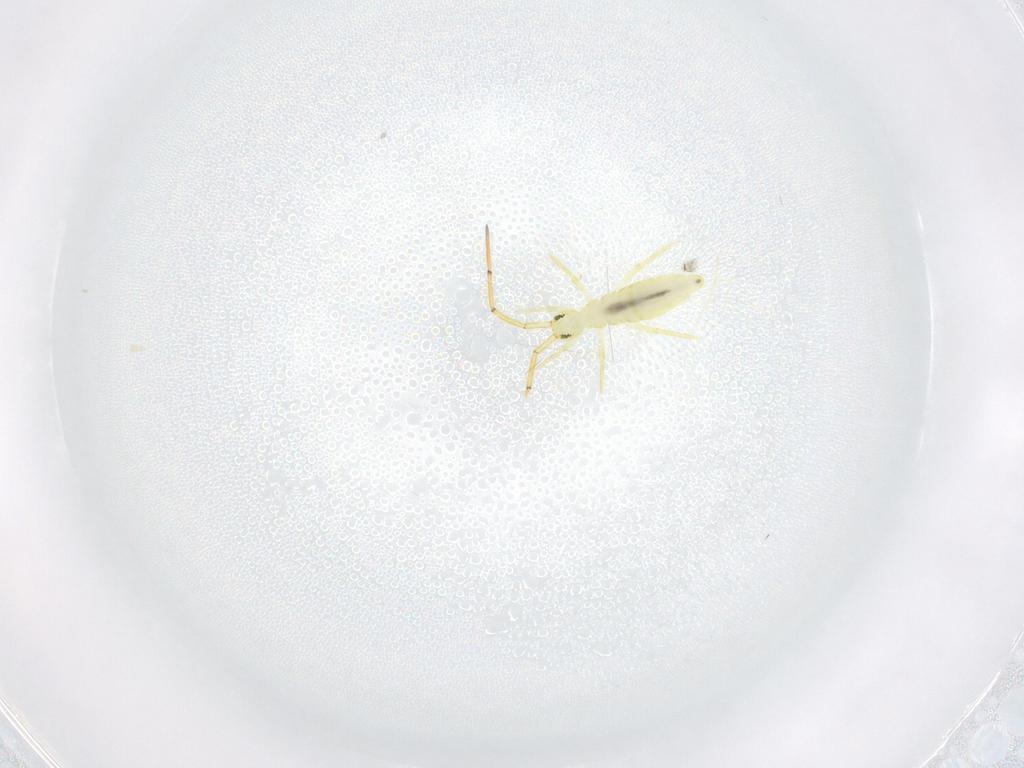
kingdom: Animalia
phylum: Arthropoda
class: Collembola
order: Entomobryomorpha
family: Paronellidae
